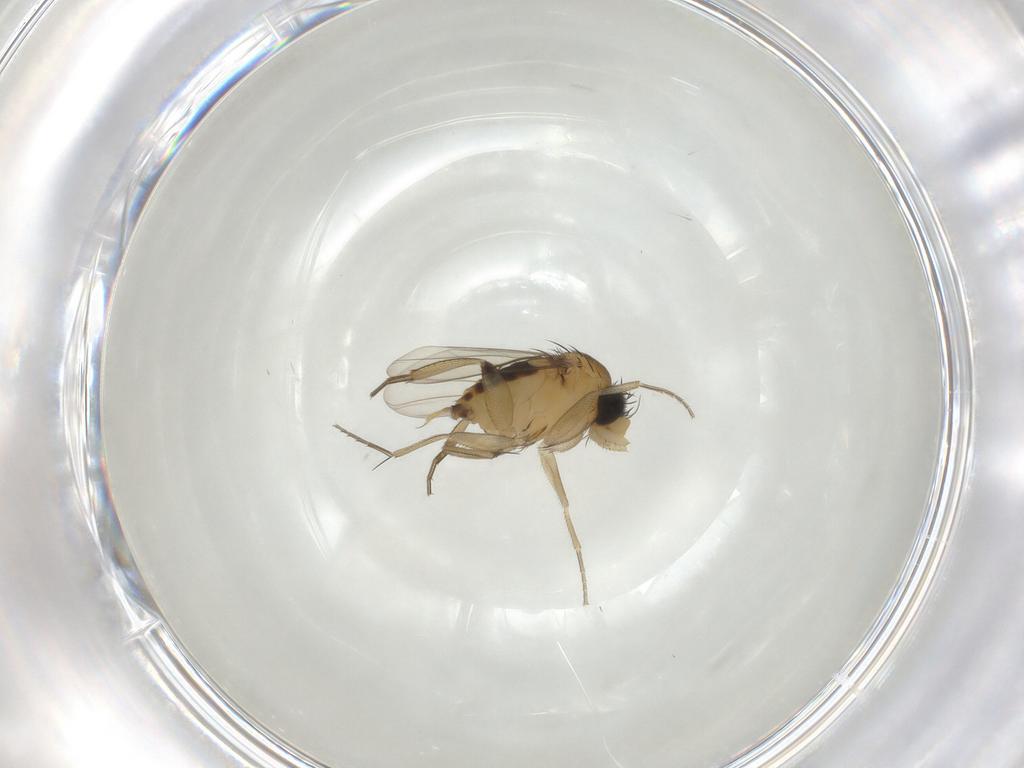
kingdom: Animalia
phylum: Arthropoda
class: Insecta
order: Diptera
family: Phoridae
